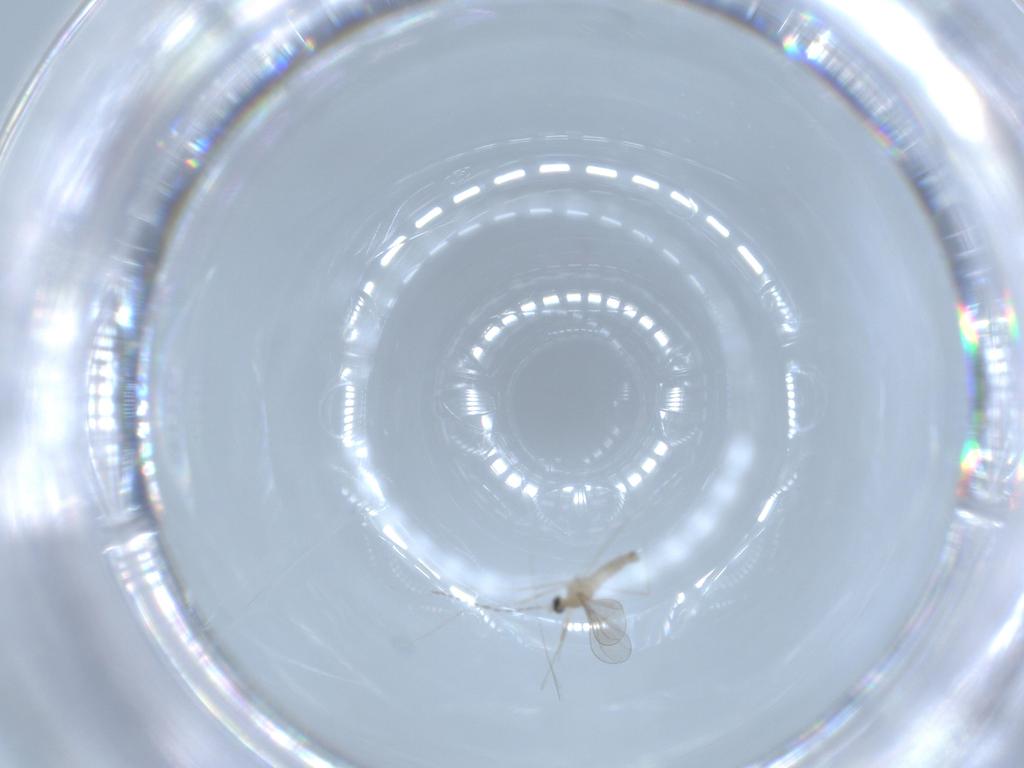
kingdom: Animalia
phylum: Arthropoda
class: Insecta
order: Diptera
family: Cecidomyiidae
